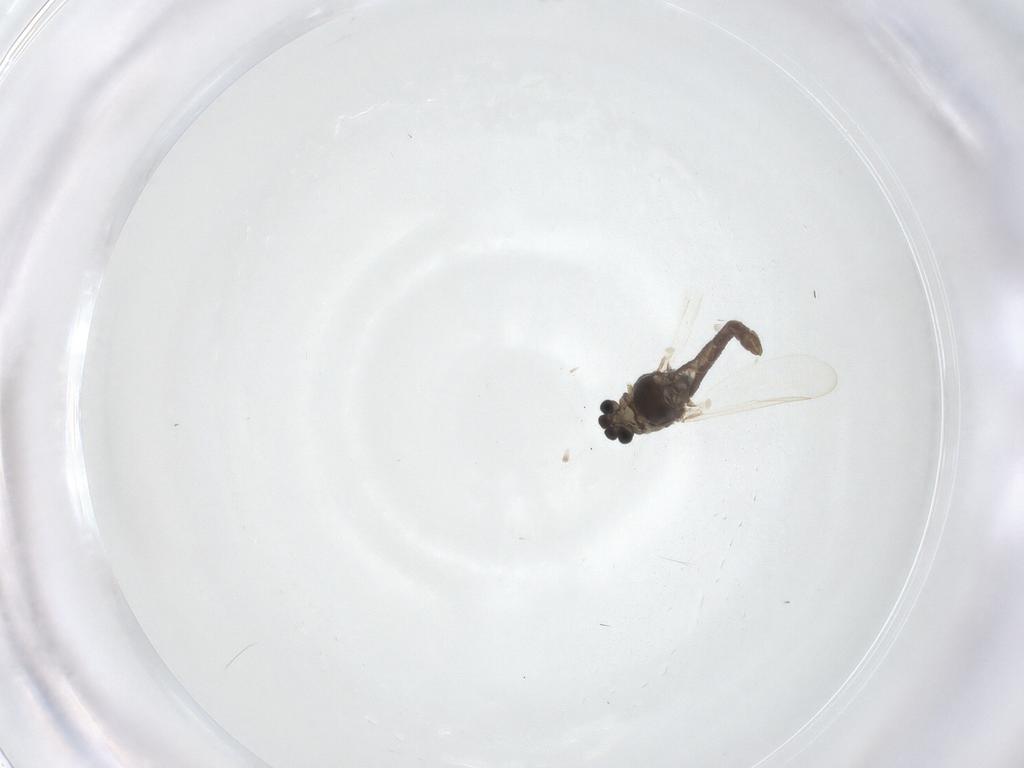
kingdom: Animalia
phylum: Arthropoda
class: Insecta
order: Diptera
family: Chironomidae
